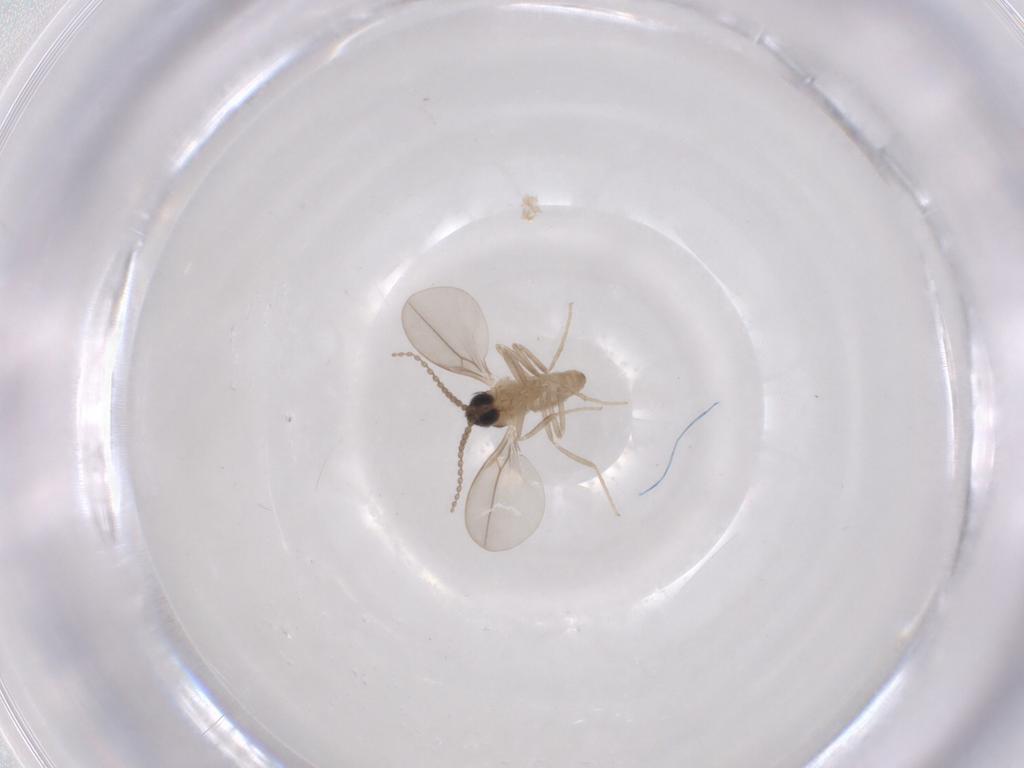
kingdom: Animalia
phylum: Arthropoda
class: Insecta
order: Diptera
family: Cecidomyiidae
